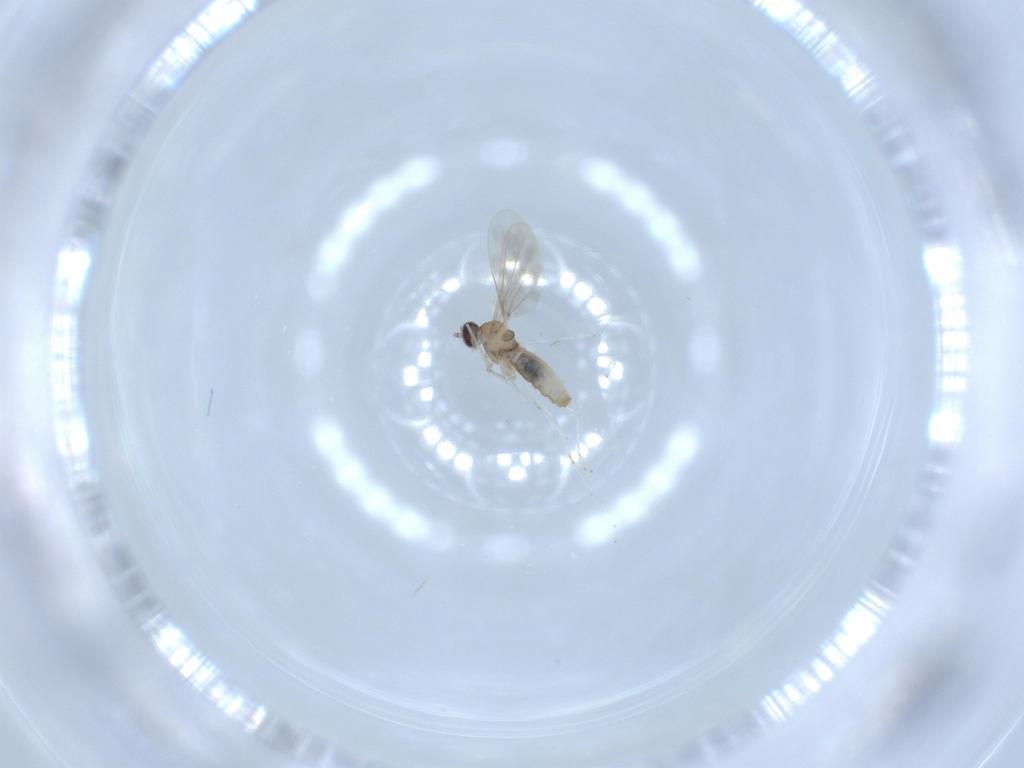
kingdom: Animalia
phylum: Arthropoda
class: Insecta
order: Diptera
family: Cecidomyiidae
